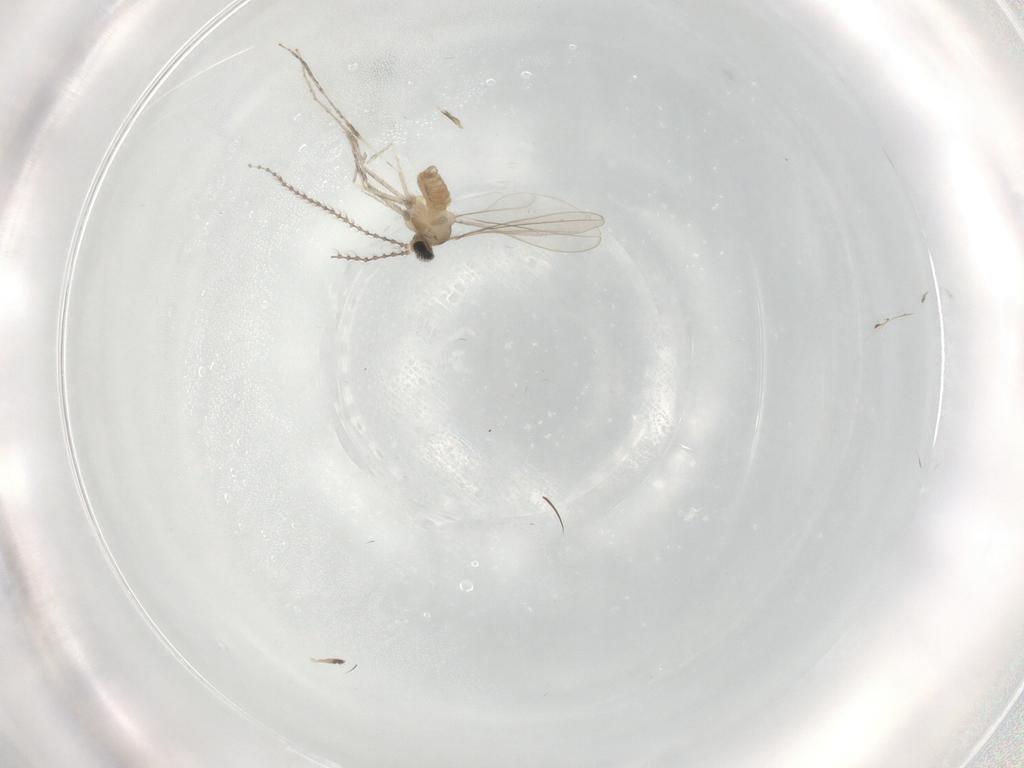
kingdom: Animalia
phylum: Arthropoda
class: Insecta
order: Diptera
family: Cecidomyiidae
